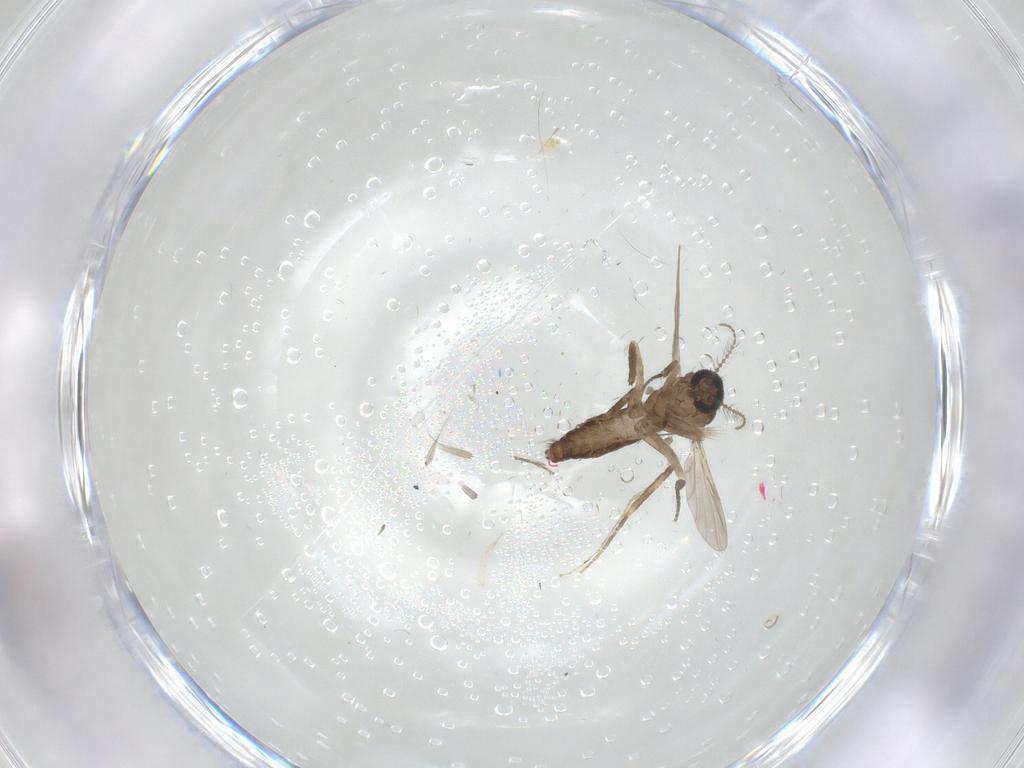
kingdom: Animalia
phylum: Arthropoda
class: Insecta
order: Diptera
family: Ceratopogonidae
